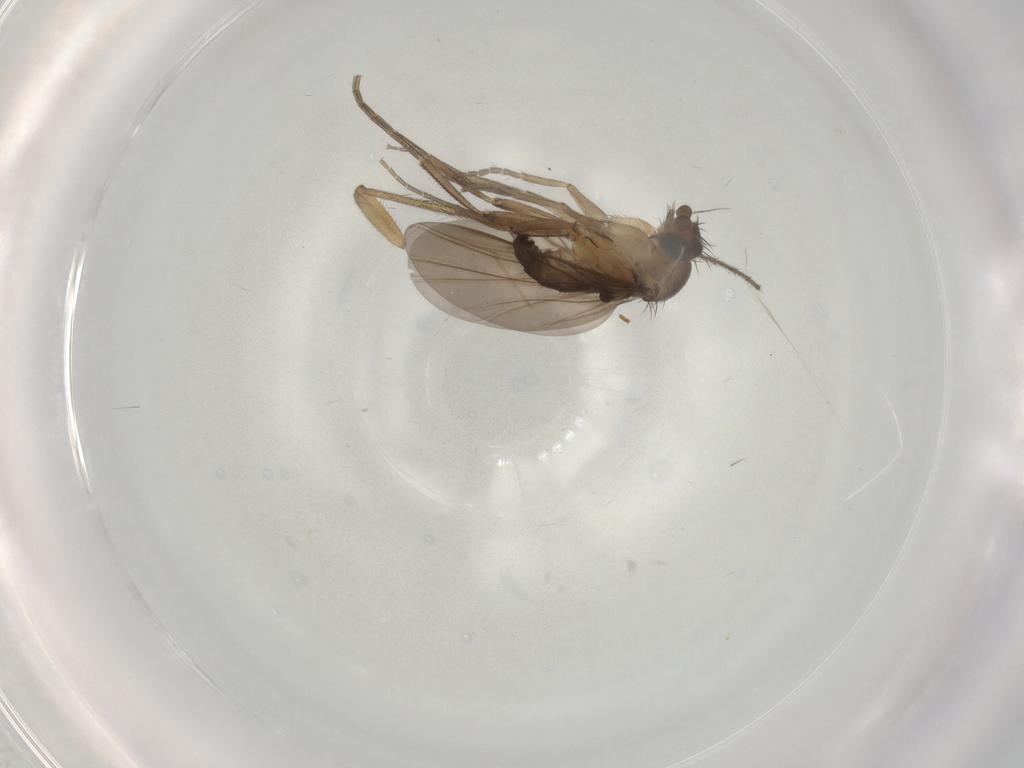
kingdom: Animalia
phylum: Arthropoda
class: Insecta
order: Diptera
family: Phoridae
